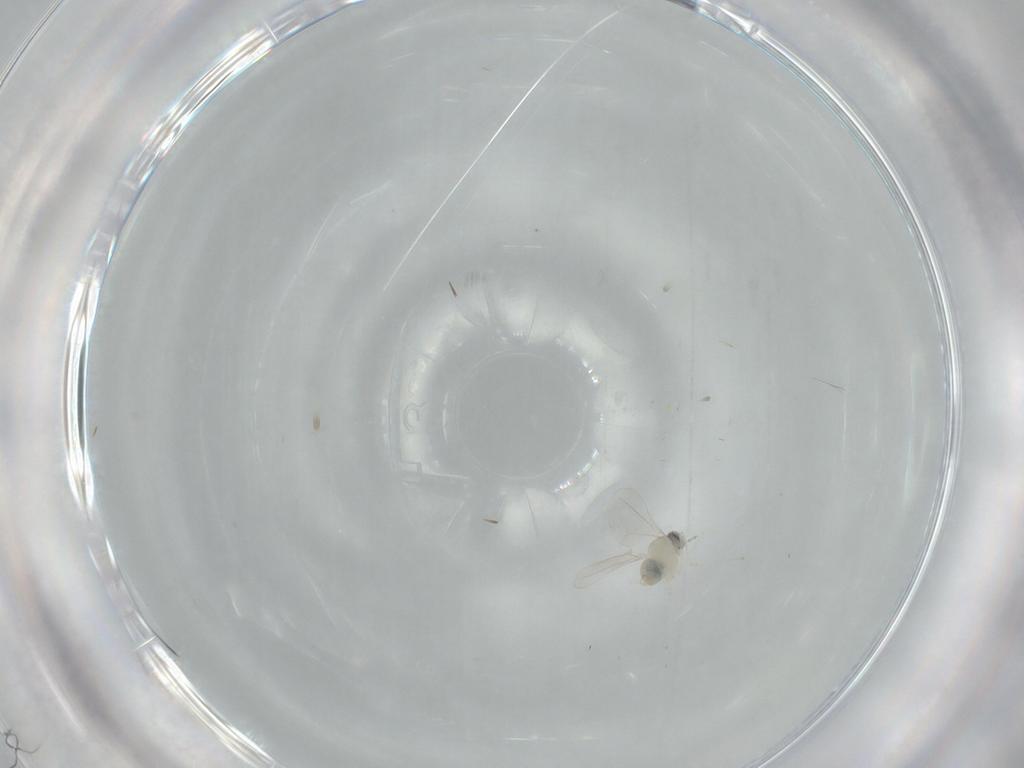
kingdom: Animalia
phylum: Arthropoda
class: Insecta
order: Diptera
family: Cecidomyiidae
